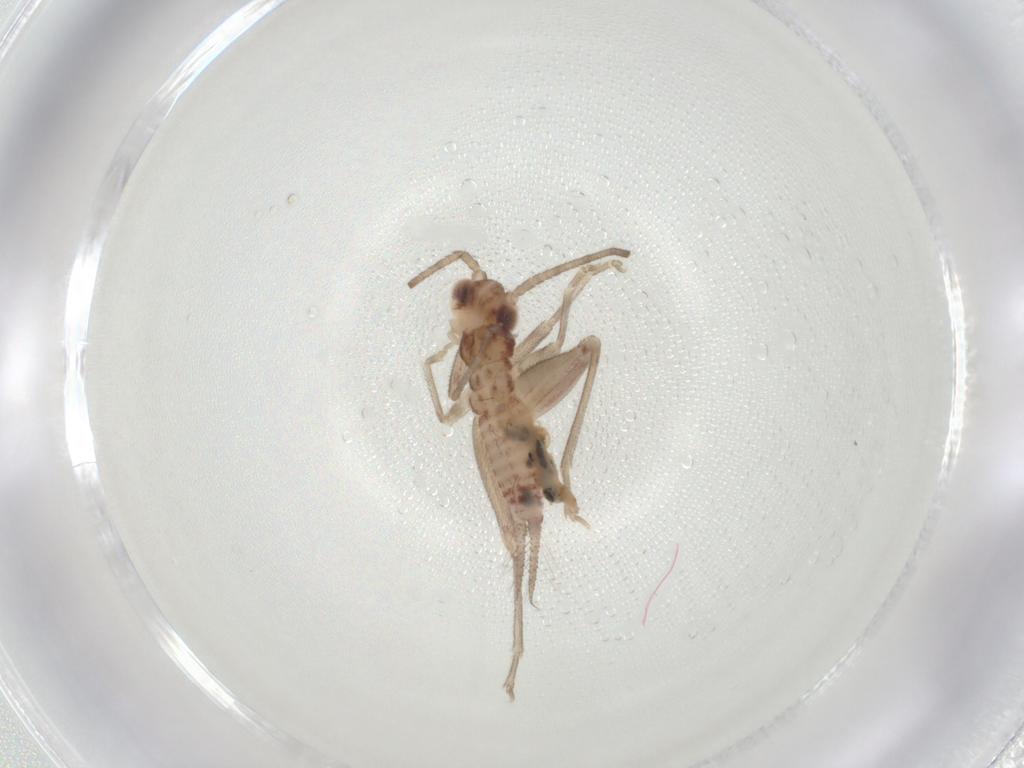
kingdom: Animalia
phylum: Arthropoda
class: Insecta
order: Orthoptera
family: Trigonidiidae
